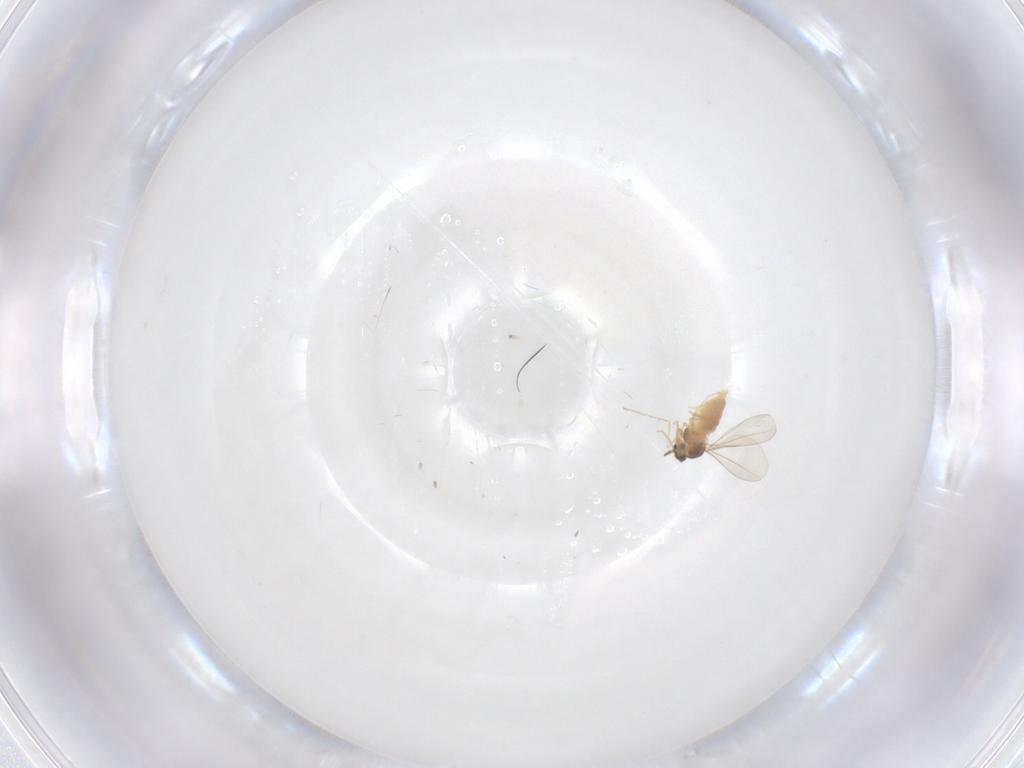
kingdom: Animalia
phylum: Arthropoda
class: Insecta
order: Diptera
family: Cecidomyiidae
